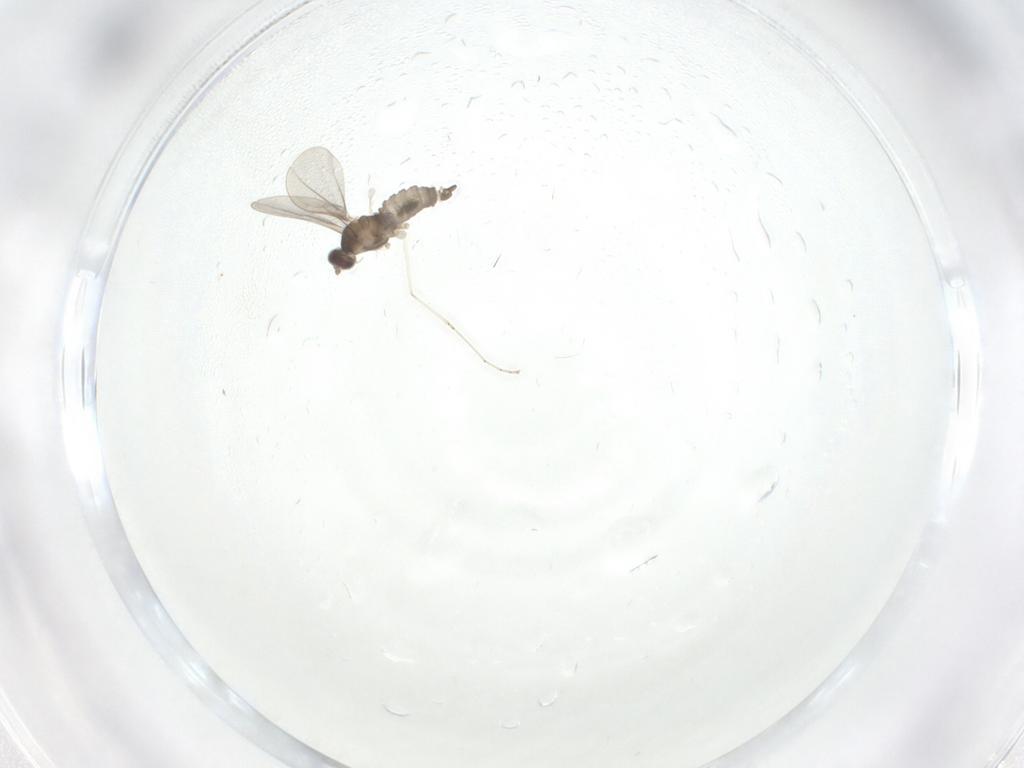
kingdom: Animalia
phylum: Arthropoda
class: Insecta
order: Diptera
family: Cecidomyiidae
